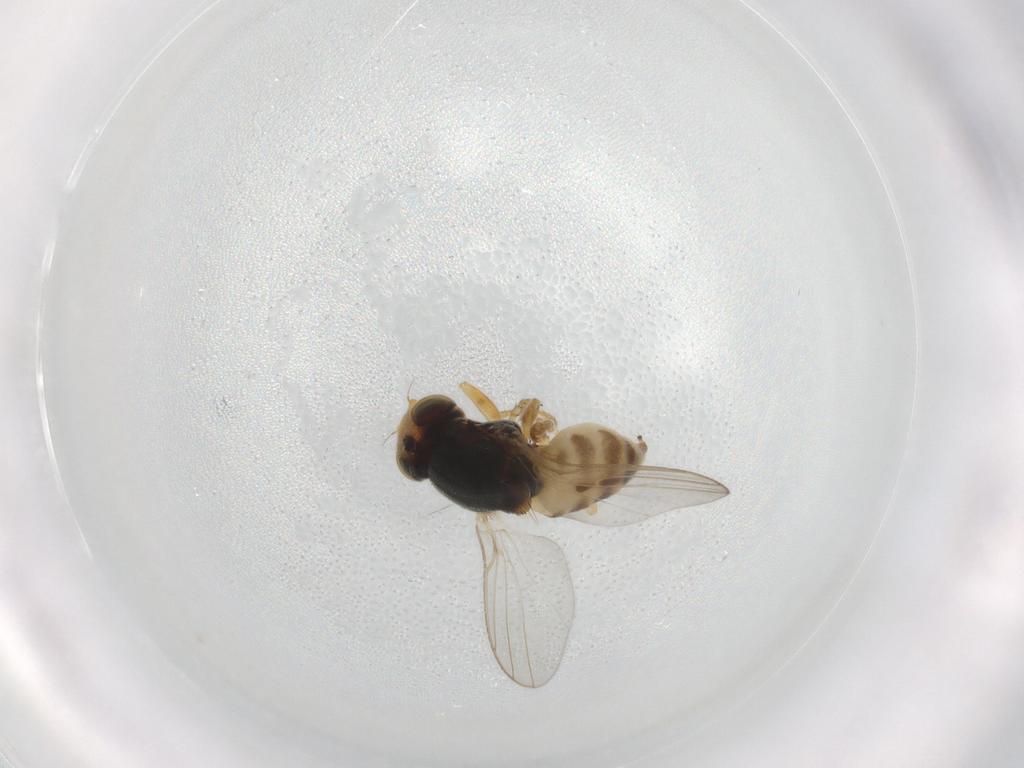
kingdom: Animalia
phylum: Arthropoda
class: Insecta
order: Diptera
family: Chloropidae
